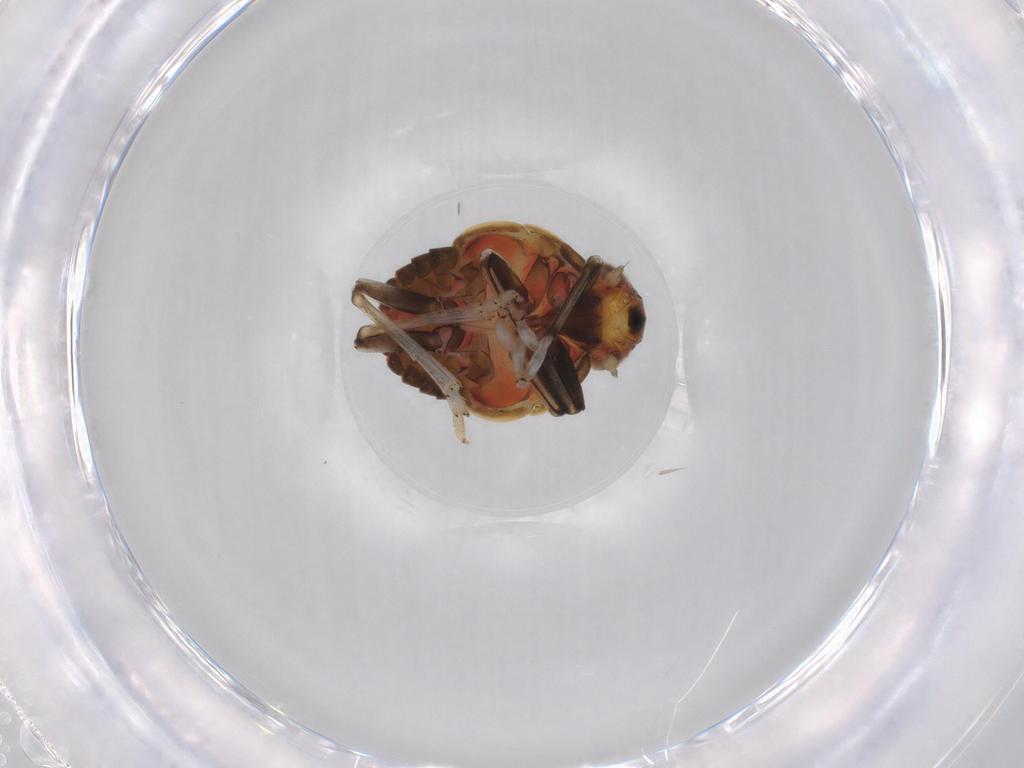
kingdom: Animalia
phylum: Arthropoda
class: Insecta
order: Hemiptera
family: Issidae
